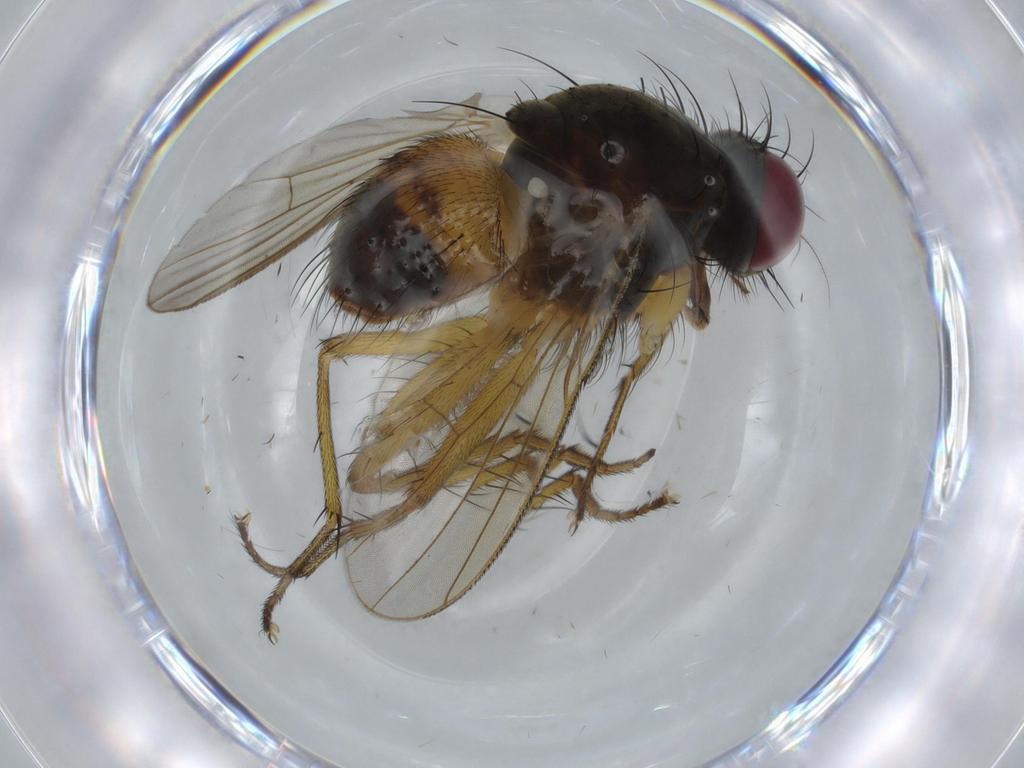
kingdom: Animalia
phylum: Arthropoda
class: Insecta
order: Diptera
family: Muscidae
